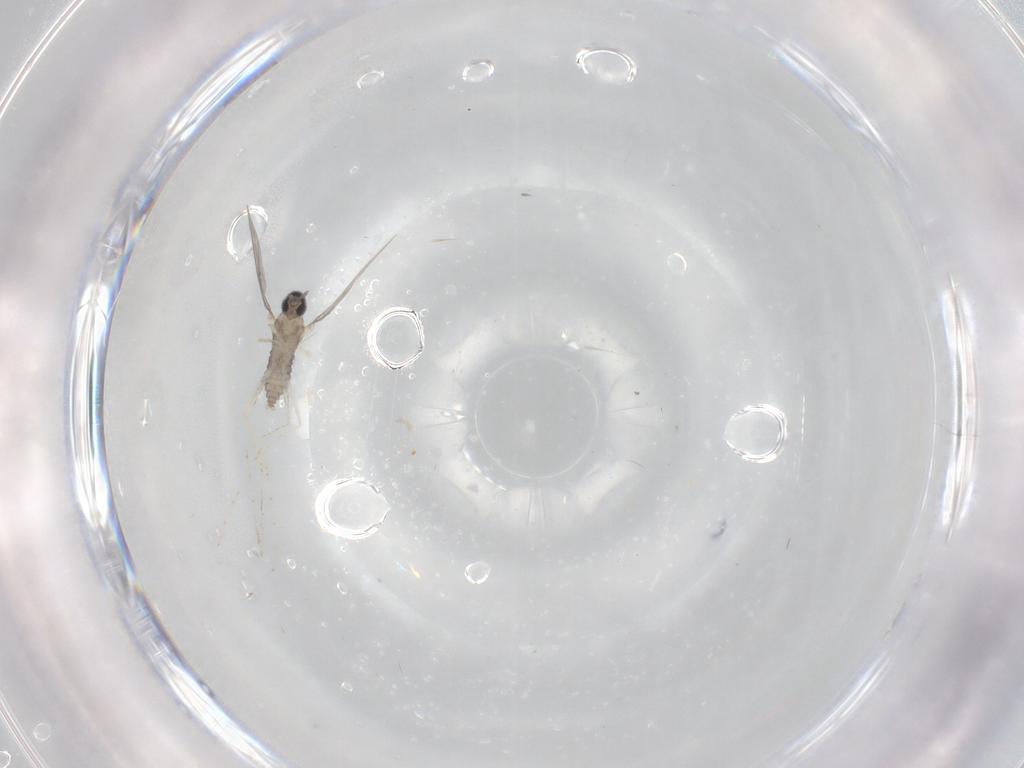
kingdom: Animalia
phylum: Arthropoda
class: Insecta
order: Diptera
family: Cecidomyiidae
